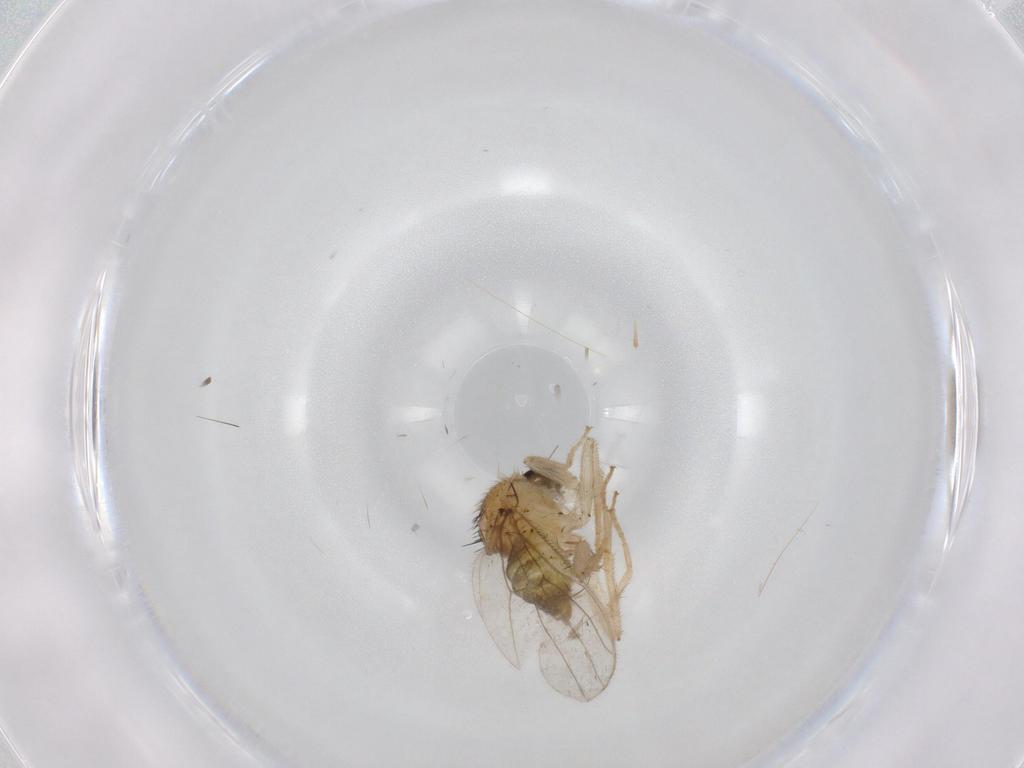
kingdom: Animalia
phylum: Arthropoda
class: Insecta
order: Diptera
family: Hybotidae
